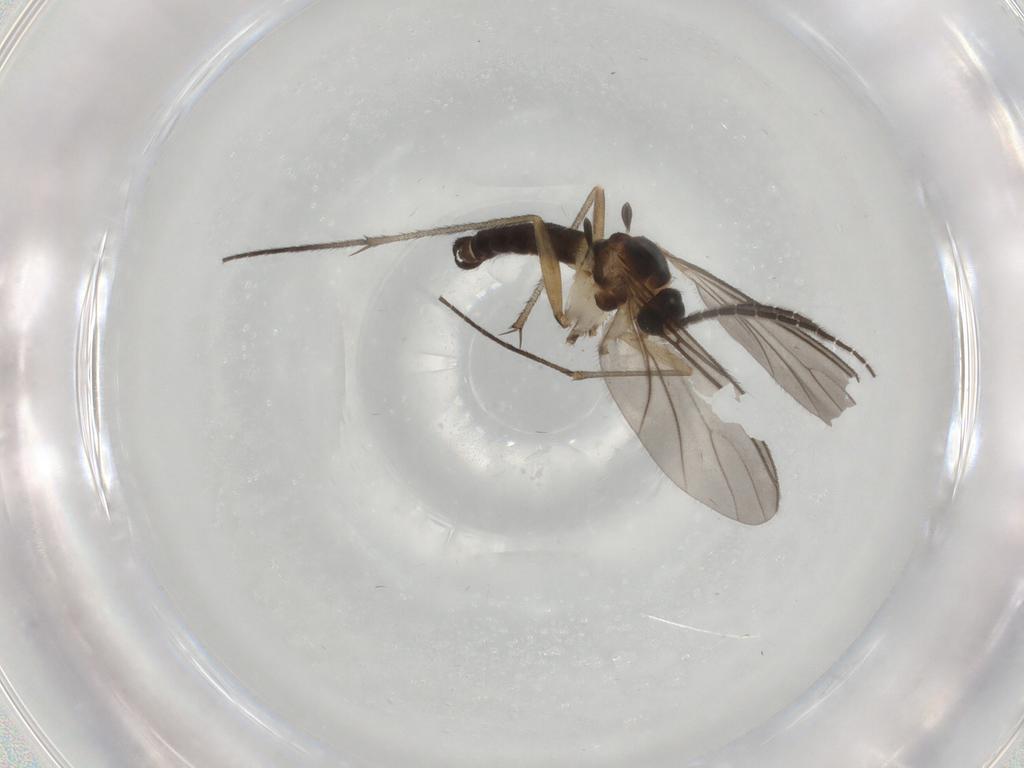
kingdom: Animalia
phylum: Arthropoda
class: Insecta
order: Diptera
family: Sciaridae
